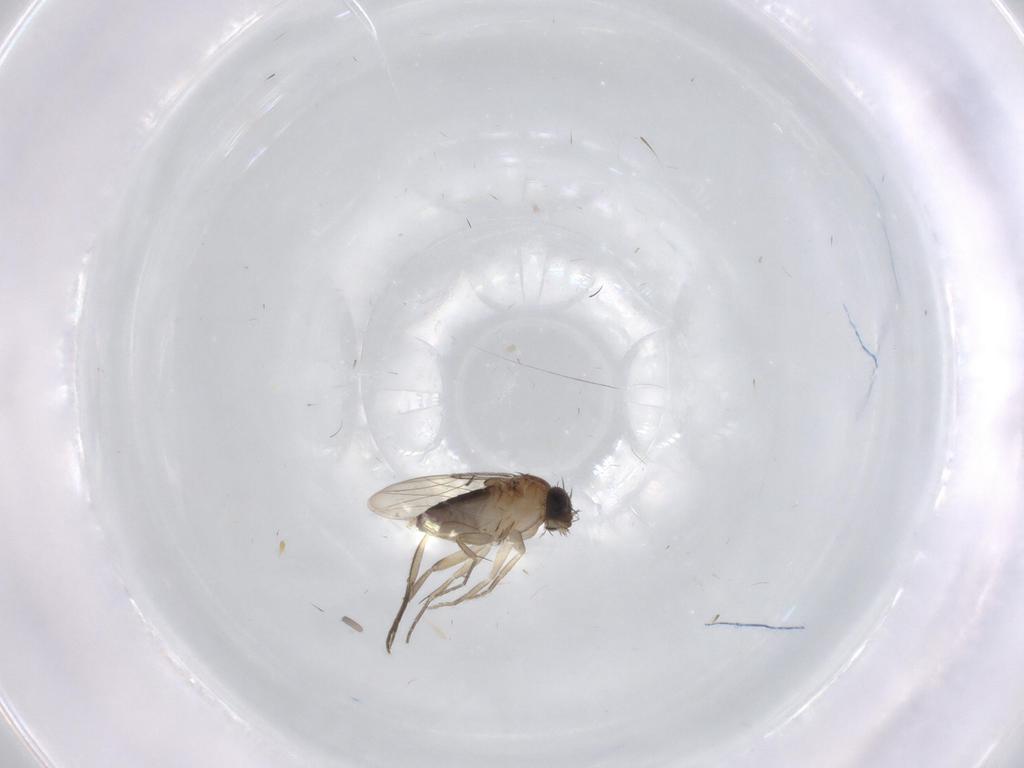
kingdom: Animalia
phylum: Arthropoda
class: Insecta
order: Diptera
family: Phoridae
